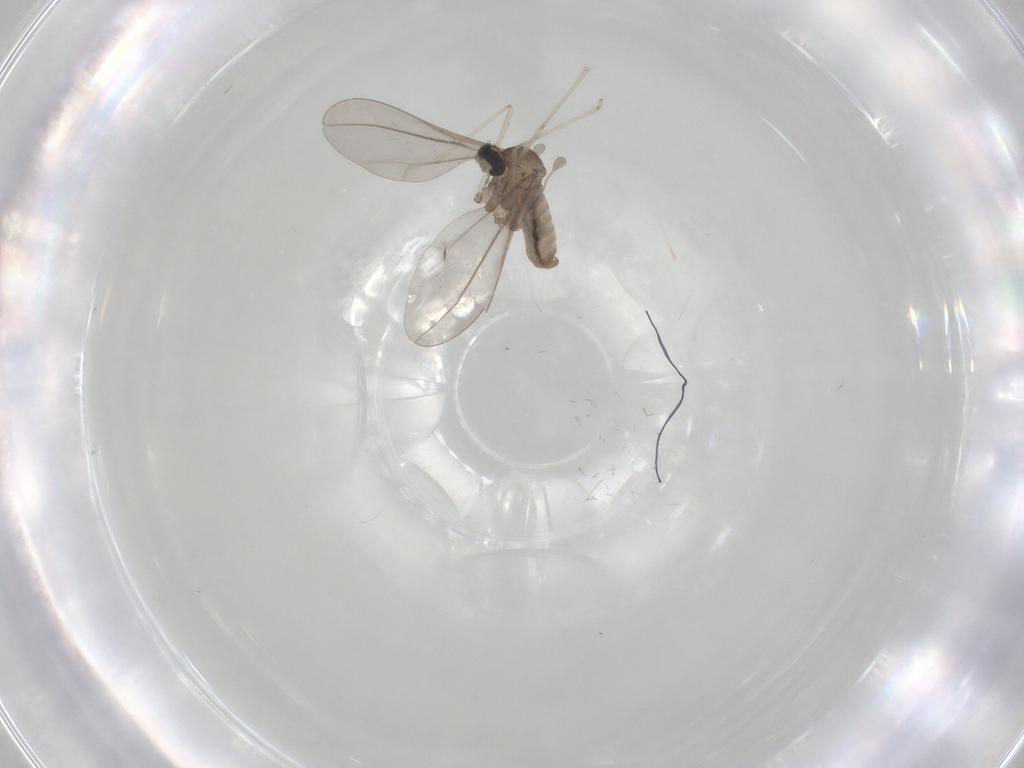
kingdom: Animalia
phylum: Arthropoda
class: Insecta
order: Diptera
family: Cecidomyiidae
